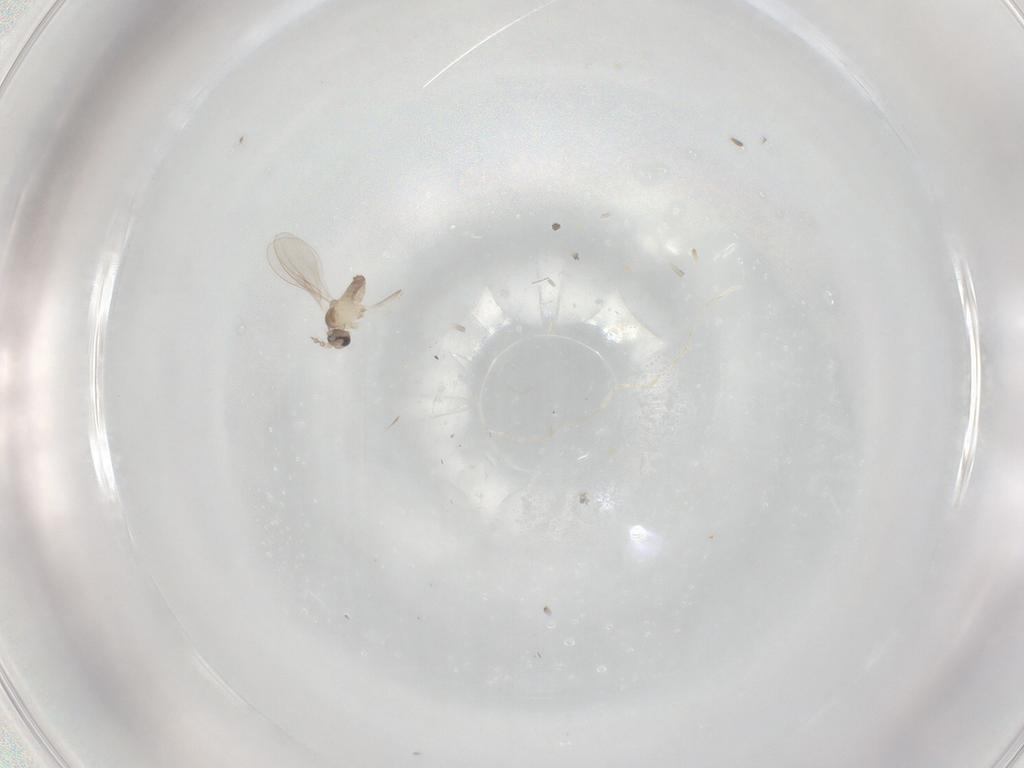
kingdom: Animalia
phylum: Arthropoda
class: Insecta
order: Diptera
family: Cecidomyiidae
